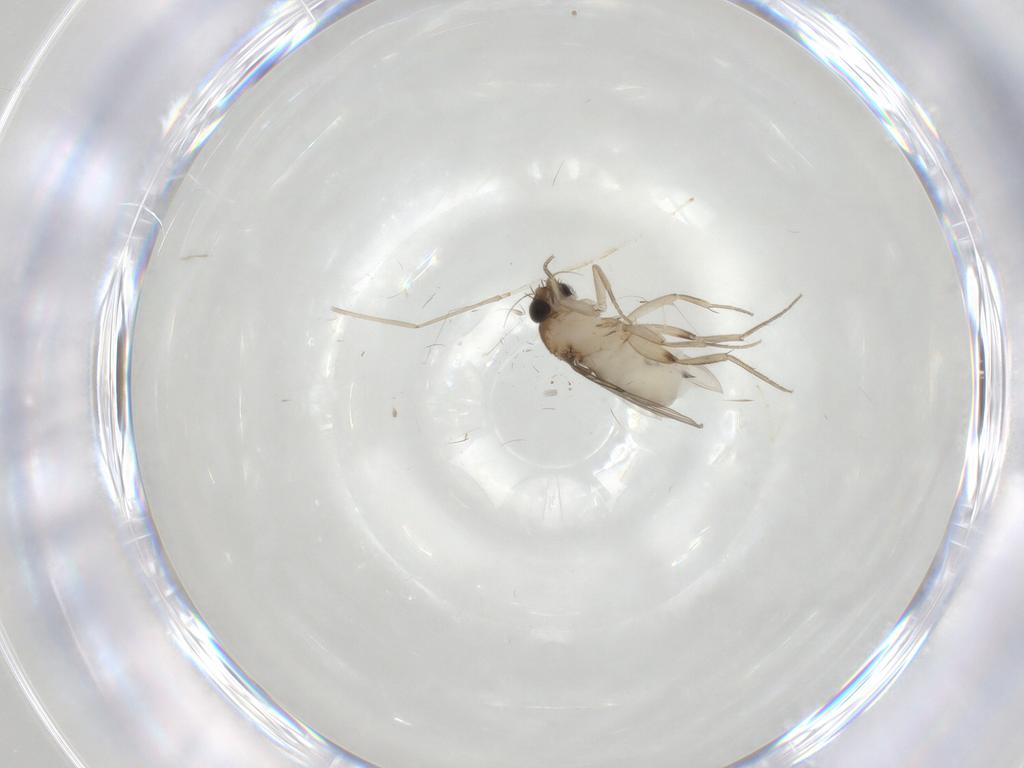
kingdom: Animalia
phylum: Arthropoda
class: Insecta
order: Diptera
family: Phoridae
